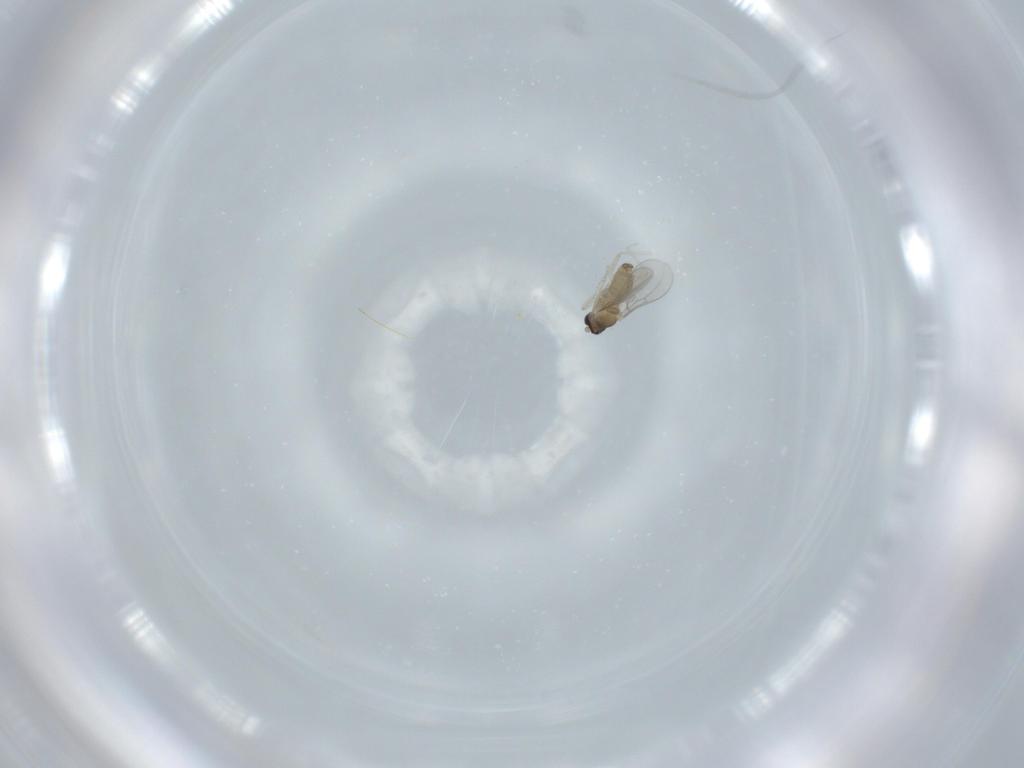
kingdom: Animalia
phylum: Arthropoda
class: Insecta
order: Diptera
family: Cecidomyiidae
